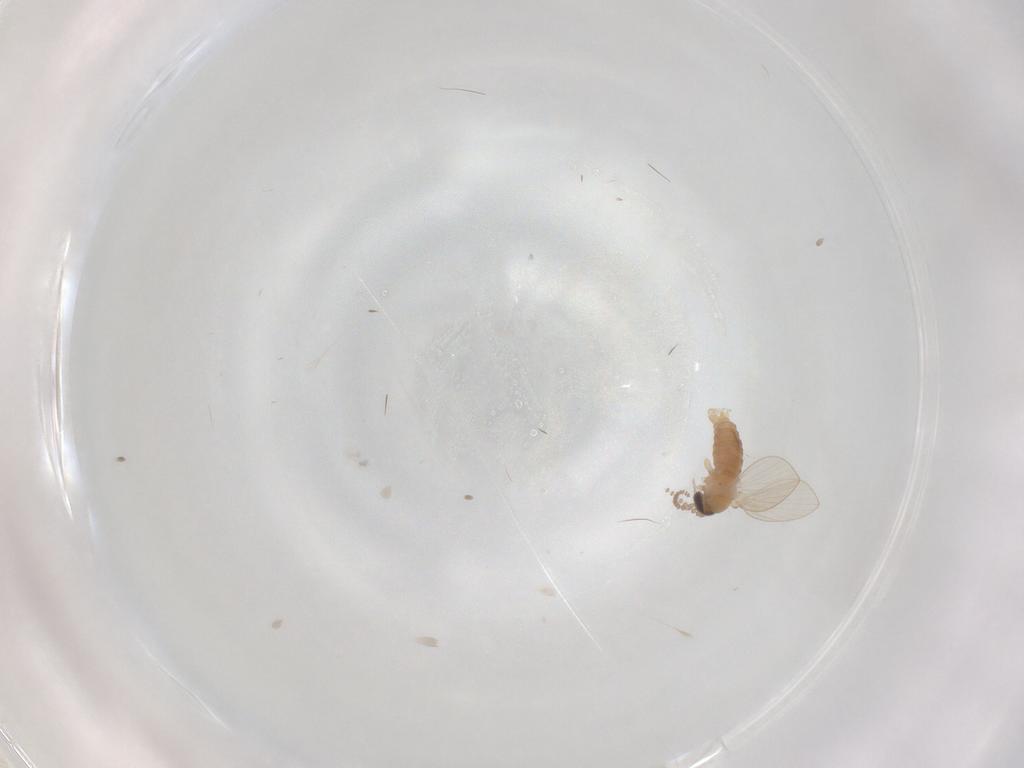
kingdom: Animalia
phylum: Arthropoda
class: Insecta
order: Diptera
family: Psychodidae
